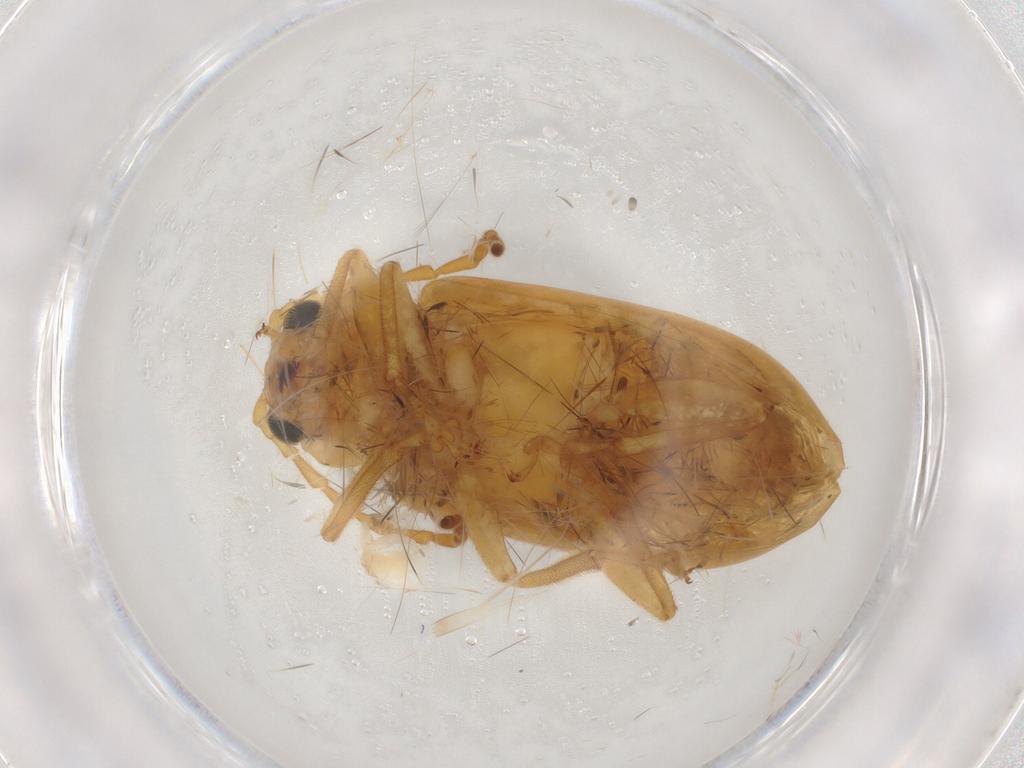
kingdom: Animalia
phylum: Arthropoda
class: Insecta
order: Coleoptera
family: Carabidae
